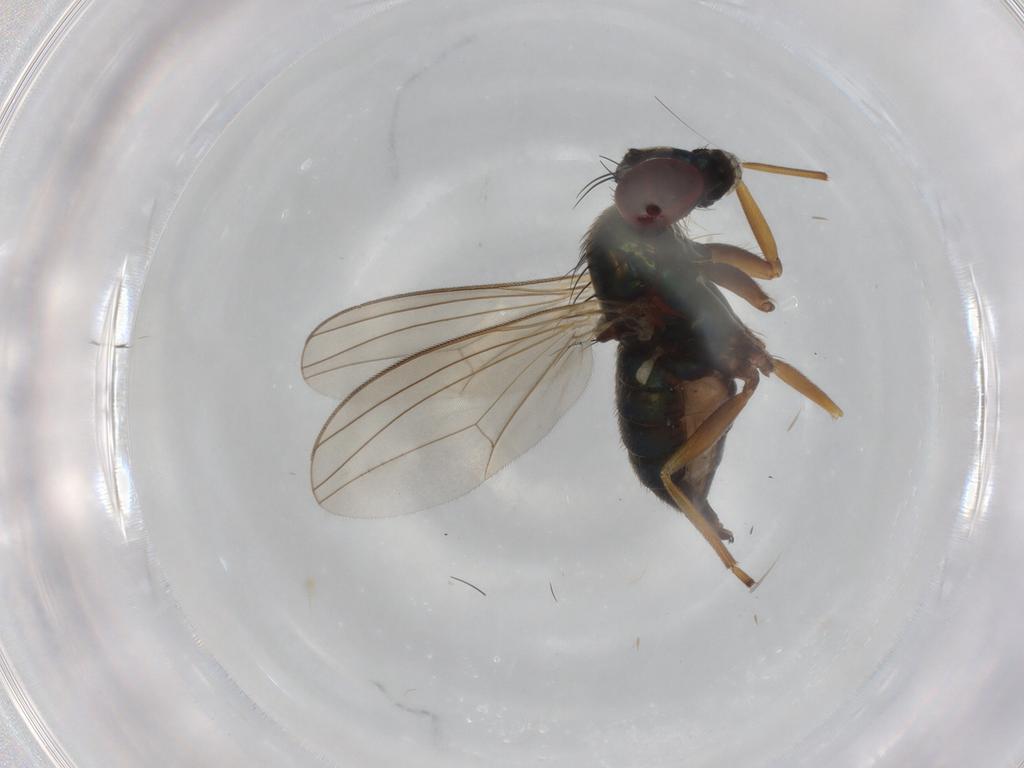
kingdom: Animalia
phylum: Arthropoda
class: Insecta
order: Diptera
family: Dolichopodidae
